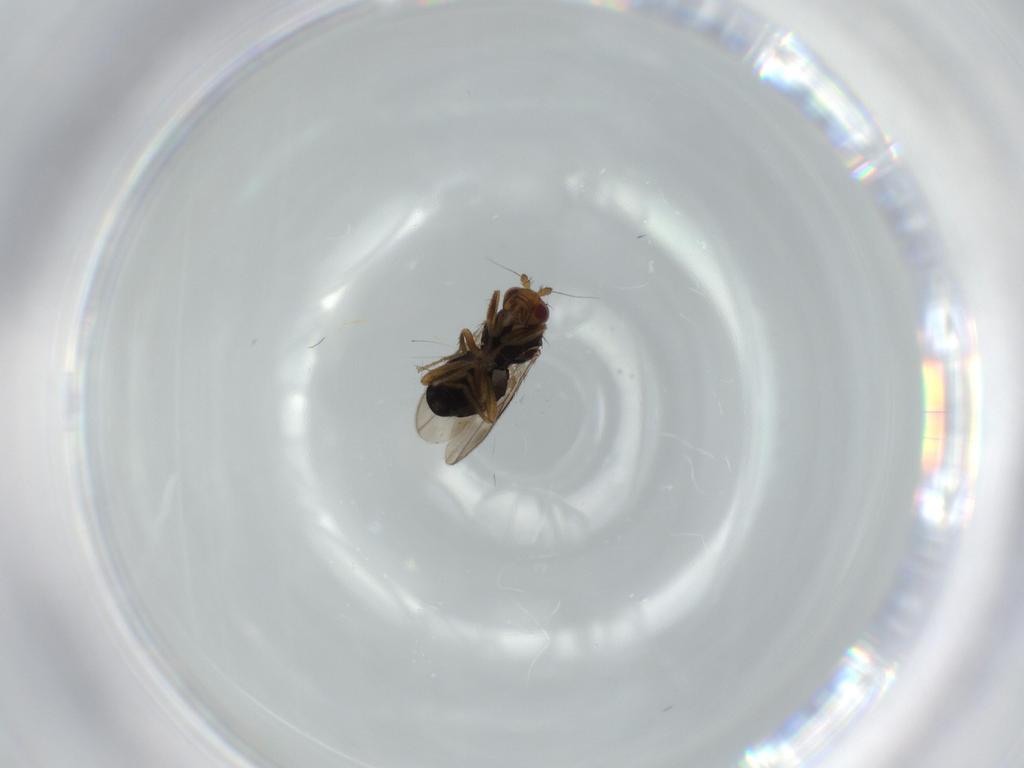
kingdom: Animalia
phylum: Arthropoda
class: Insecta
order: Diptera
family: Sphaeroceridae
